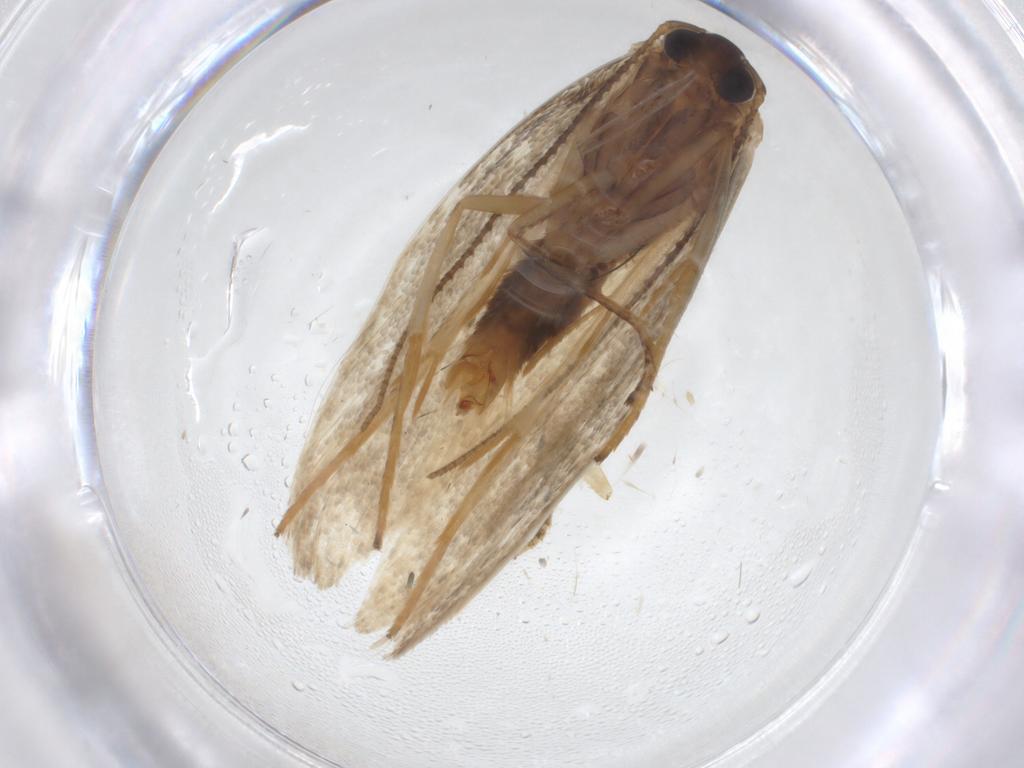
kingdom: Animalia
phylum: Arthropoda
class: Insecta
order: Lepidoptera
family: Erebidae
